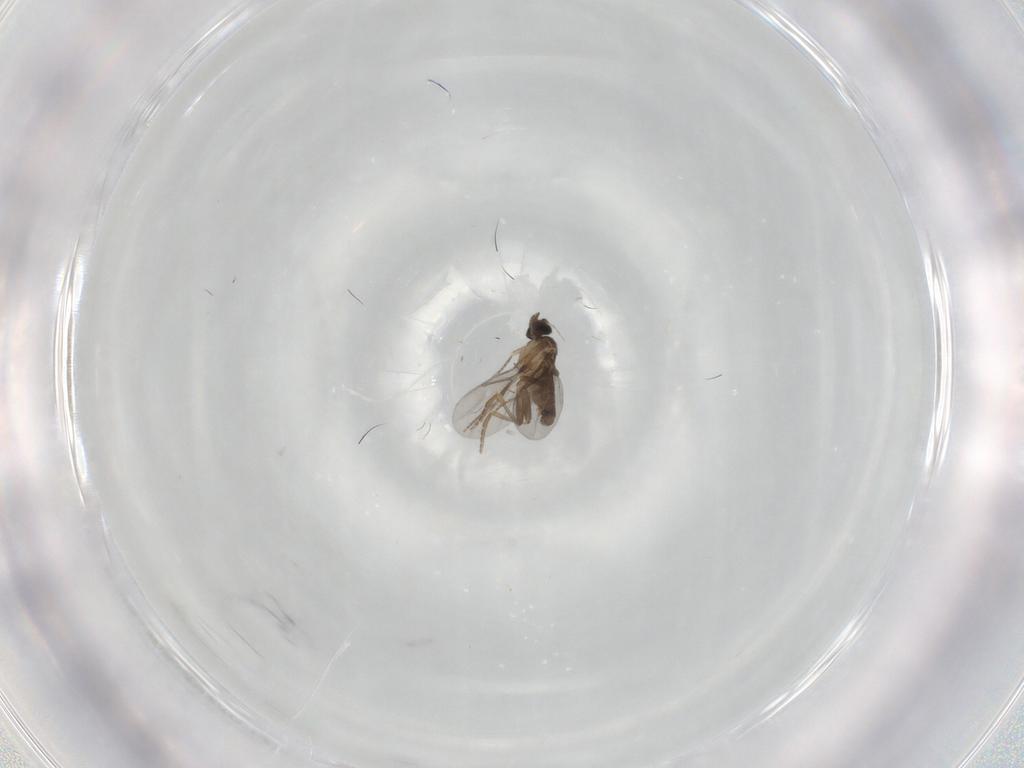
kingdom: Animalia
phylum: Arthropoda
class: Insecta
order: Diptera
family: Limoniidae
